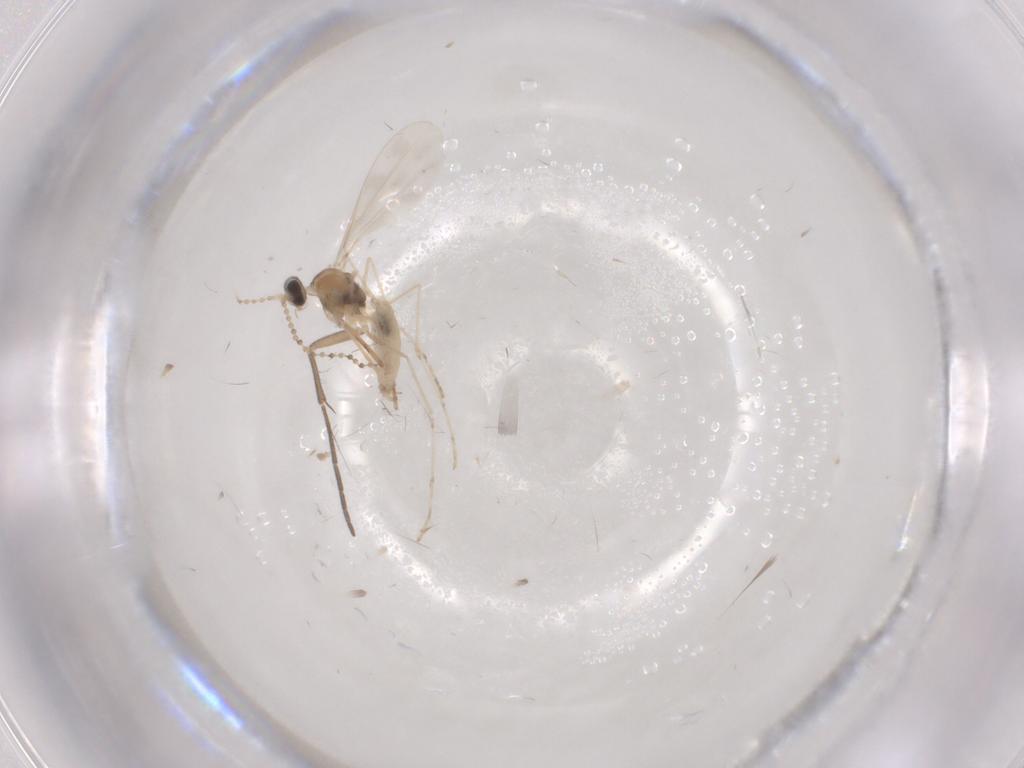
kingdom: Animalia
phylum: Arthropoda
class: Insecta
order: Diptera
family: Cecidomyiidae
